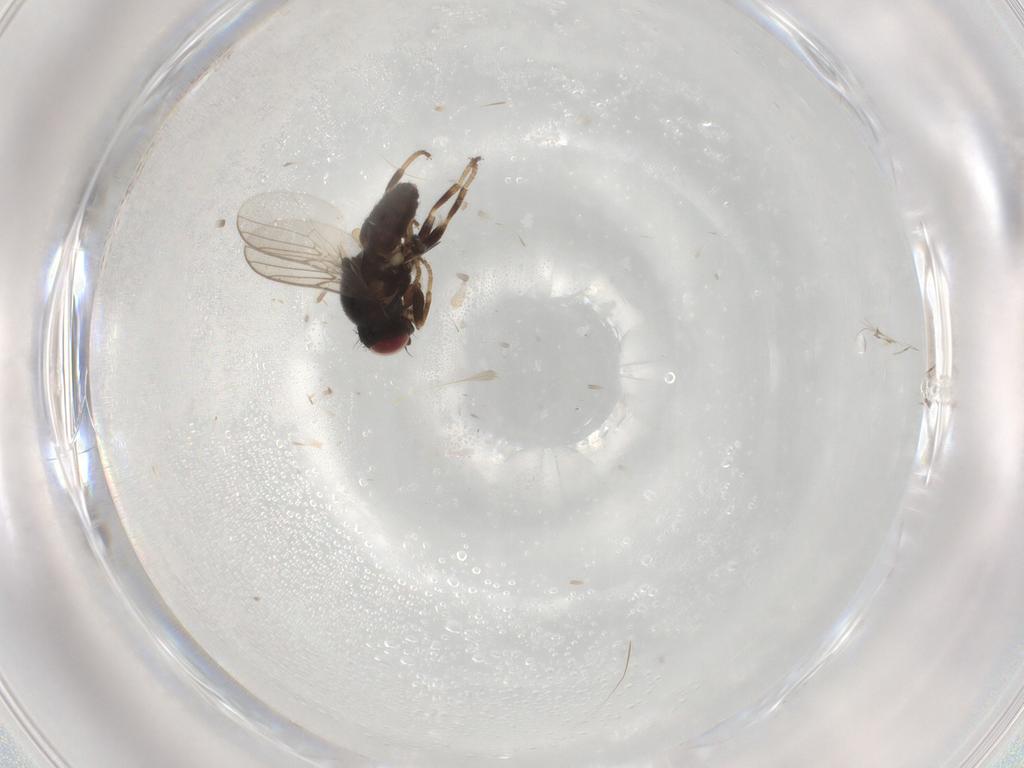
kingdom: Animalia
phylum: Arthropoda
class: Insecta
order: Diptera
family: Chloropidae
